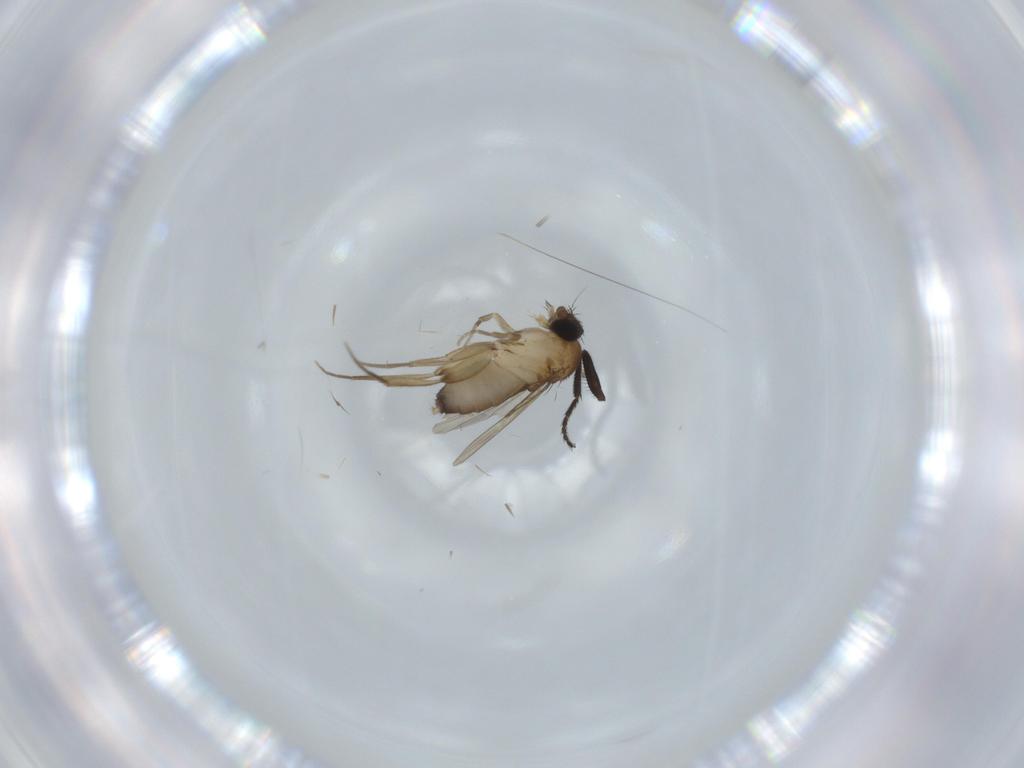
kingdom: Animalia
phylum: Arthropoda
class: Insecta
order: Diptera
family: Phoridae
